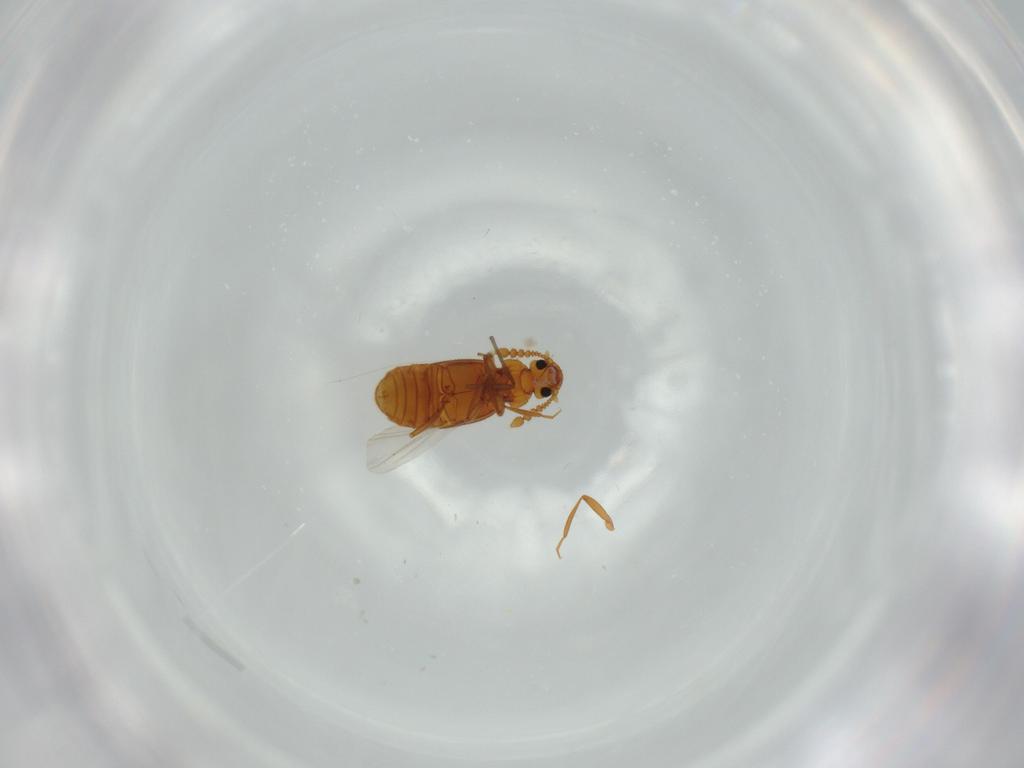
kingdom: Animalia
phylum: Arthropoda
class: Insecta
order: Coleoptera
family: Staphylinidae
